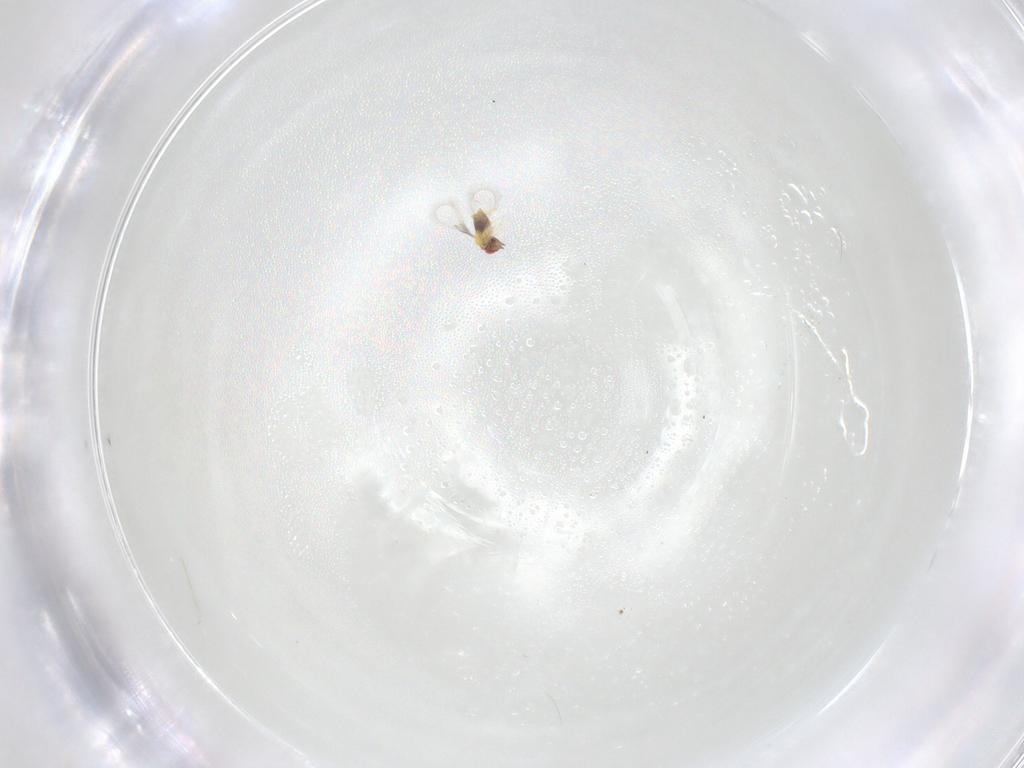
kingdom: Animalia
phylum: Arthropoda
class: Insecta
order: Hymenoptera
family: Trichogrammatidae
